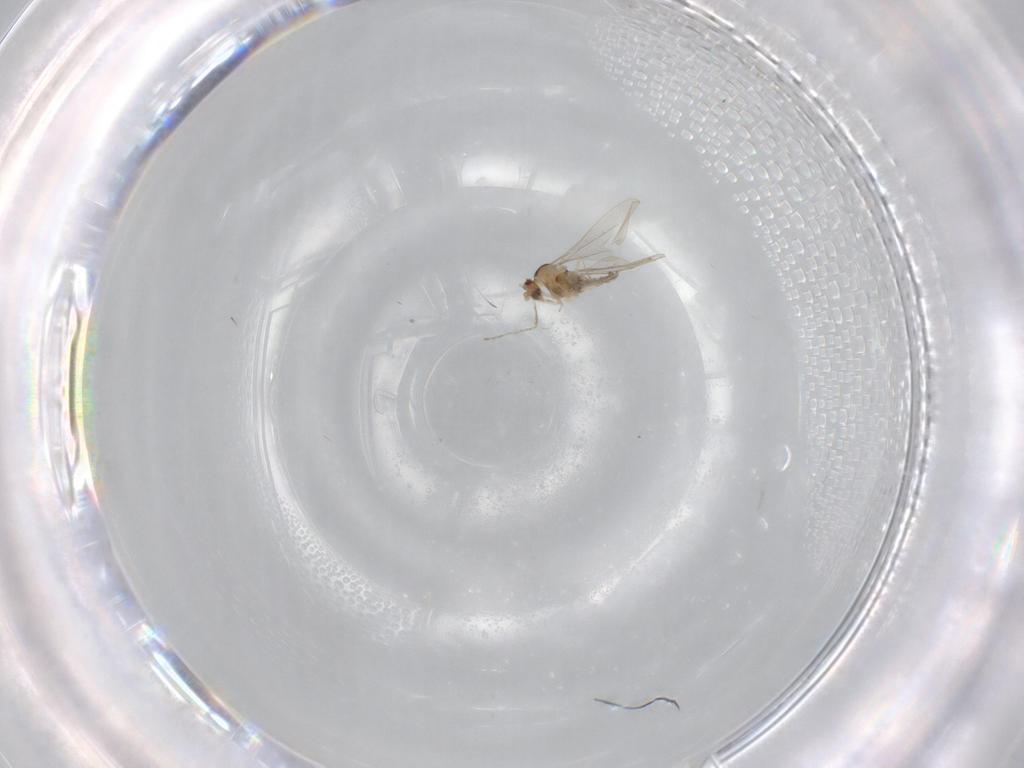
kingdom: Animalia
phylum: Arthropoda
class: Insecta
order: Diptera
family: Cecidomyiidae
